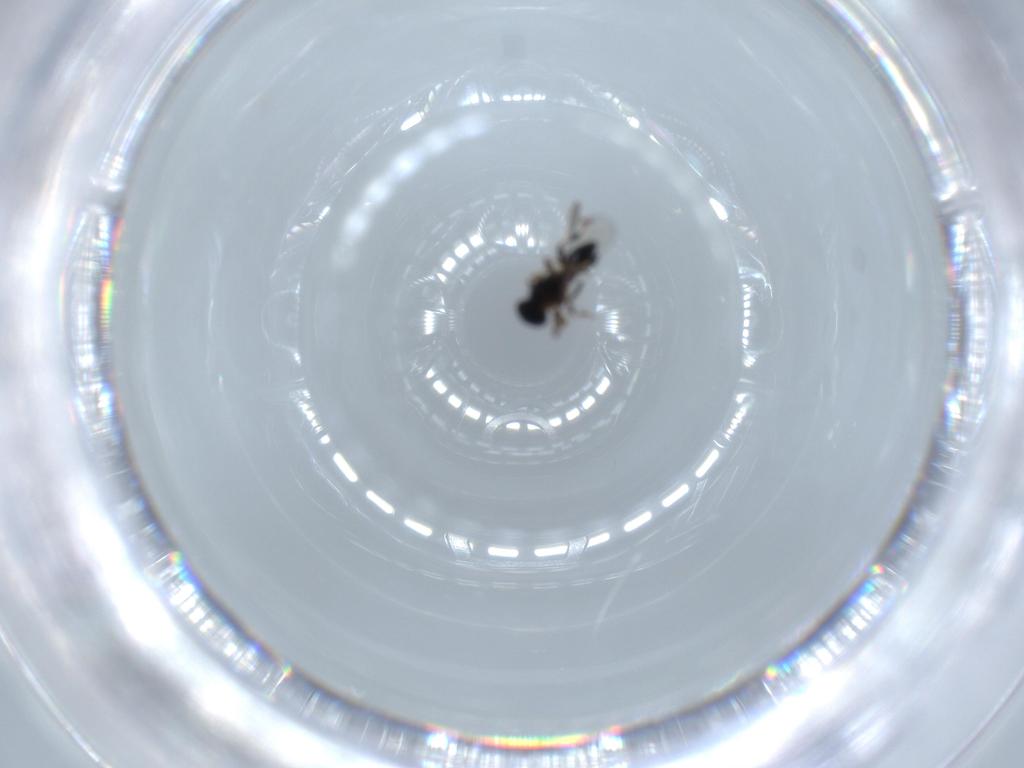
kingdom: Animalia
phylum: Arthropoda
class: Insecta
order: Hymenoptera
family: Platygastridae
